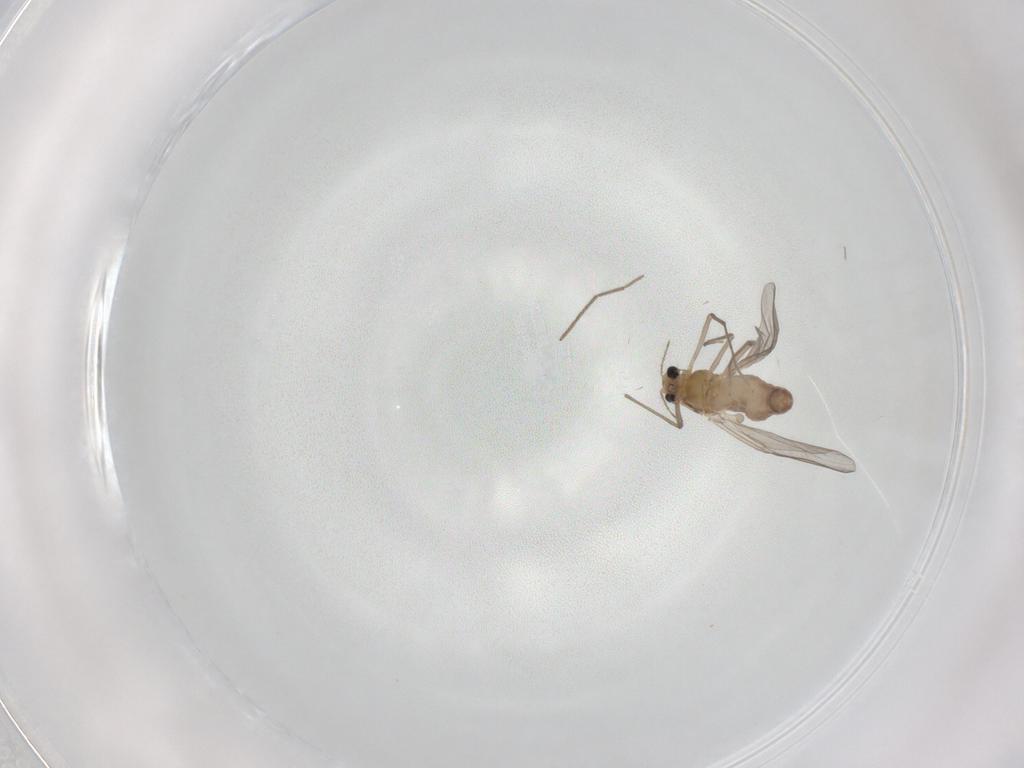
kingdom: Animalia
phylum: Arthropoda
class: Insecta
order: Diptera
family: Chironomidae
